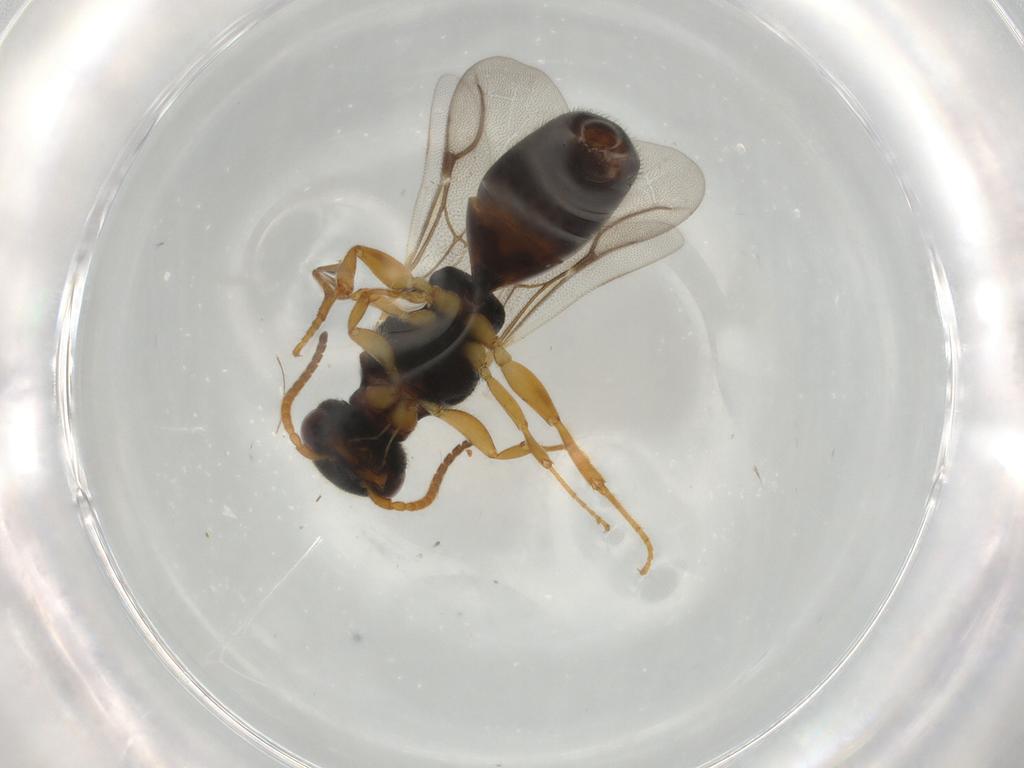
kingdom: Animalia
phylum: Arthropoda
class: Insecta
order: Hymenoptera
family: Bethylidae
